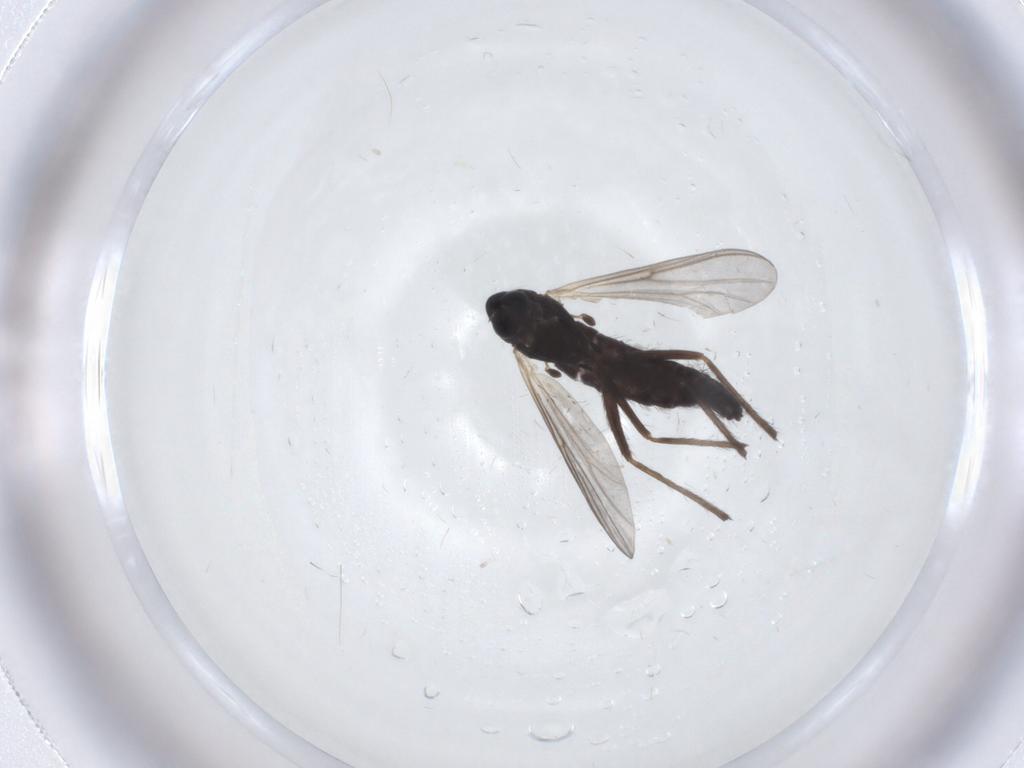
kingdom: Animalia
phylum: Arthropoda
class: Insecta
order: Diptera
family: Chironomidae
